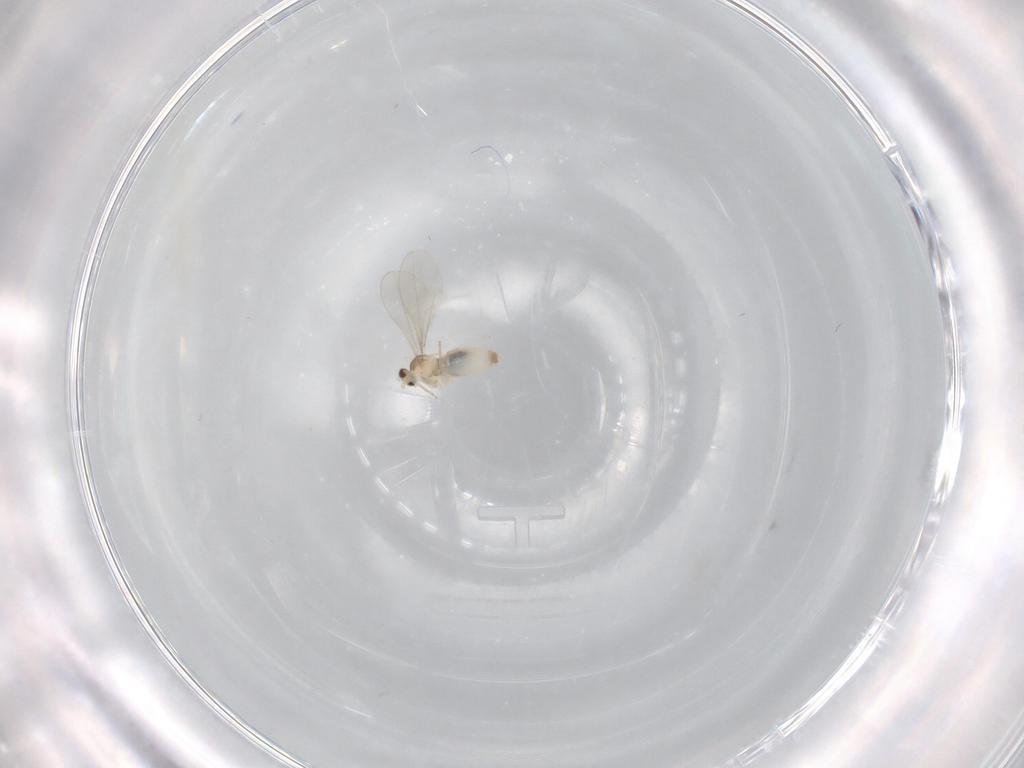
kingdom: Animalia
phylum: Arthropoda
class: Insecta
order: Diptera
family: Cecidomyiidae
